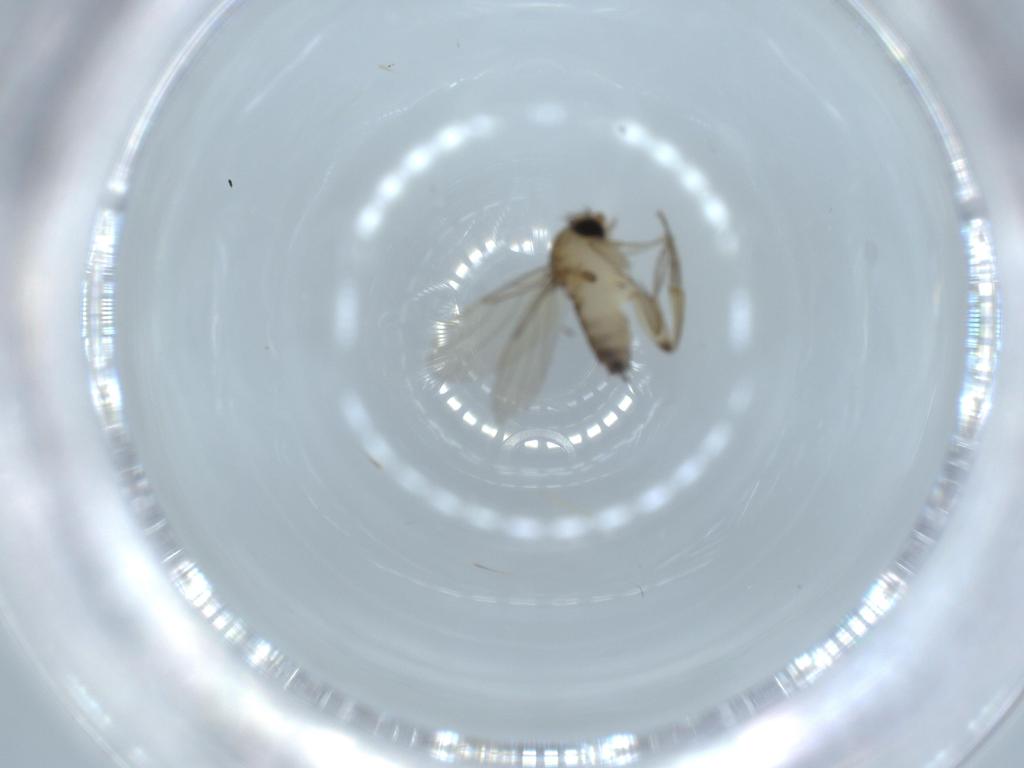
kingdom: Animalia
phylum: Arthropoda
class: Insecta
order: Diptera
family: Phoridae
